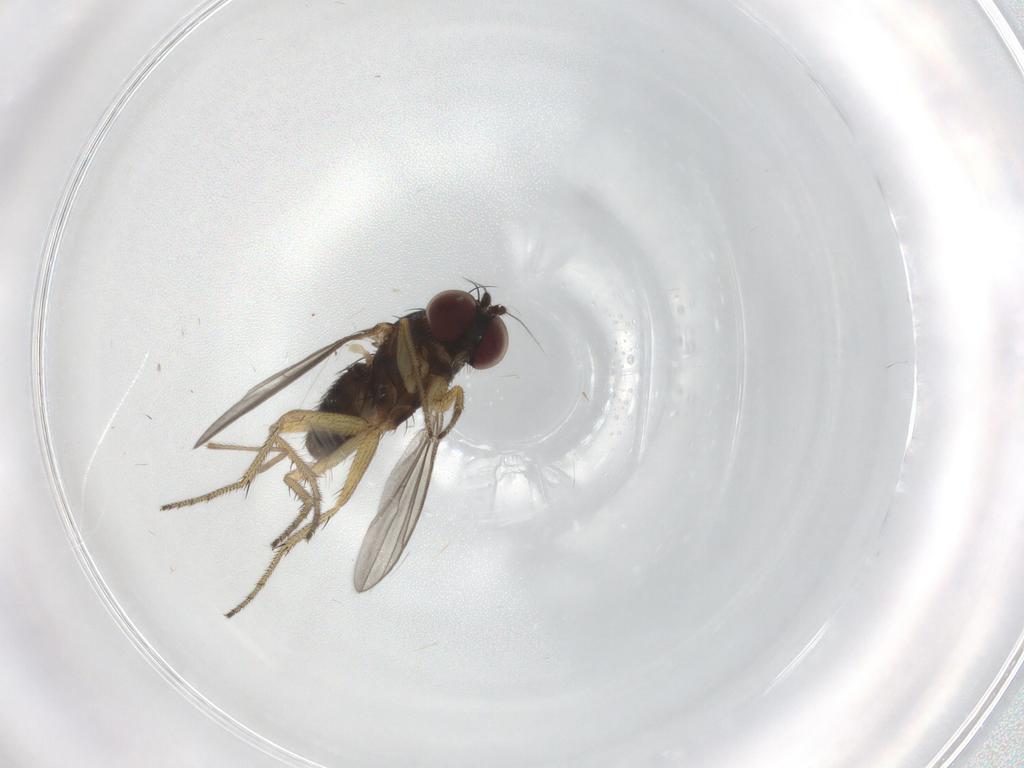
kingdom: Animalia
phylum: Arthropoda
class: Insecta
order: Diptera
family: Chironomidae
